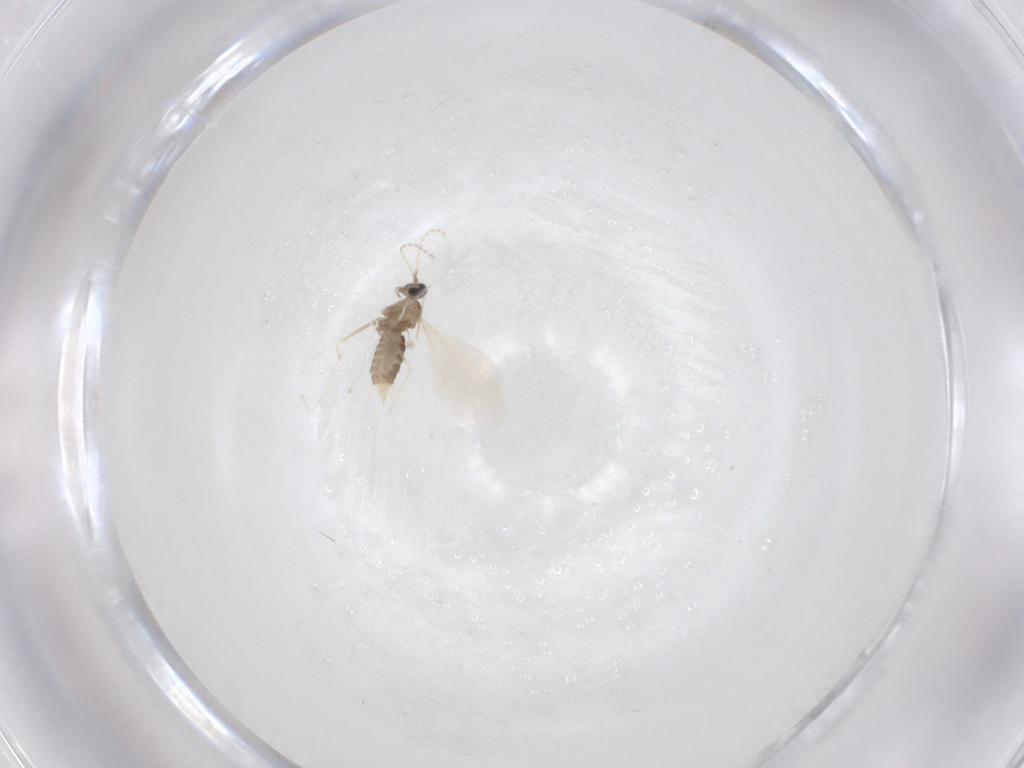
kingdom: Animalia
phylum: Arthropoda
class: Insecta
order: Diptera
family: Cecidomyiidae
